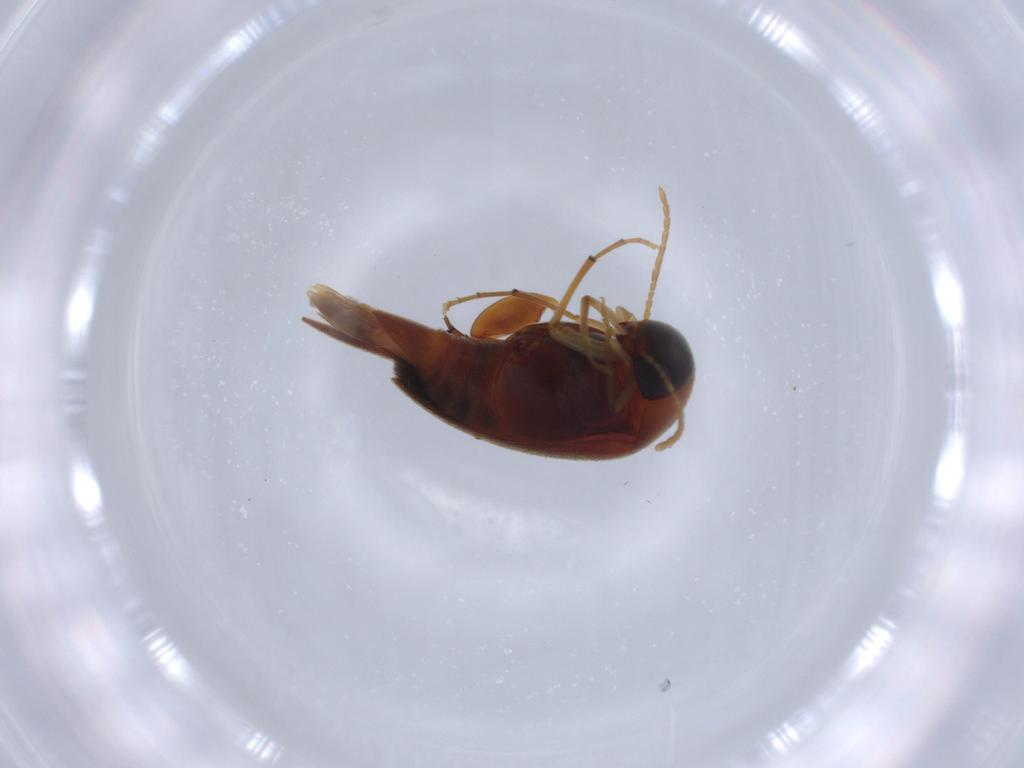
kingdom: Animalia
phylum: Arthropoda
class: Insecta
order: Coleoptera
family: Scraptiidae
